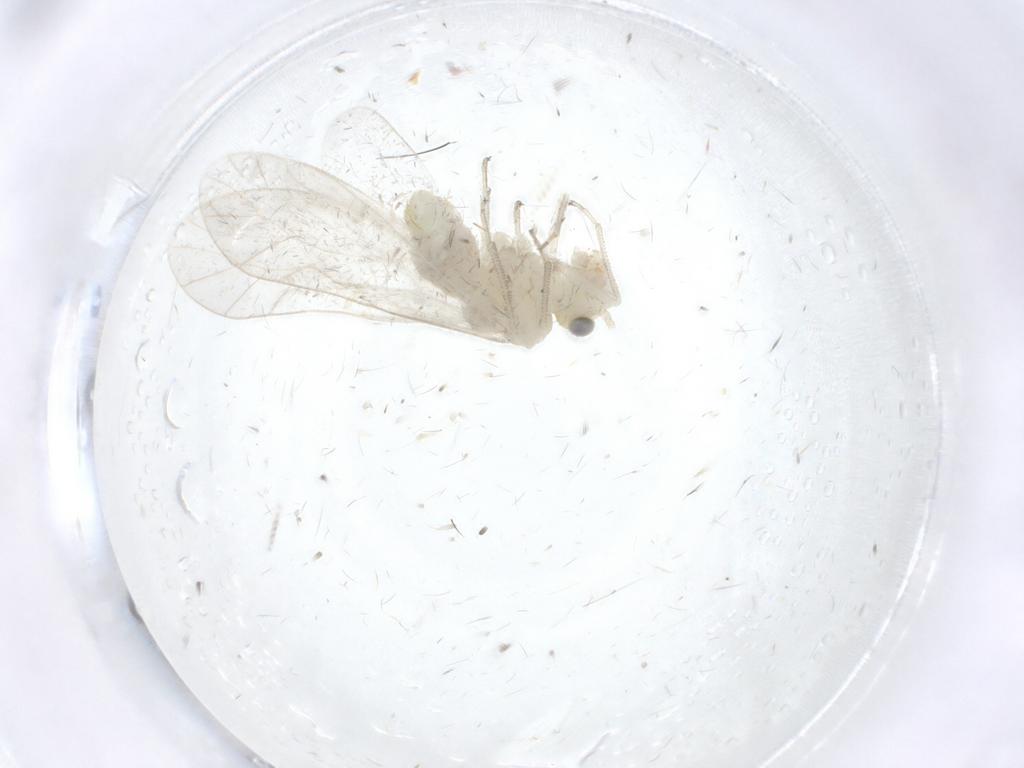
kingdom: Animalia
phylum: Arthropoda
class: Insecta
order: Psocodea
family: Caeciliusidae
